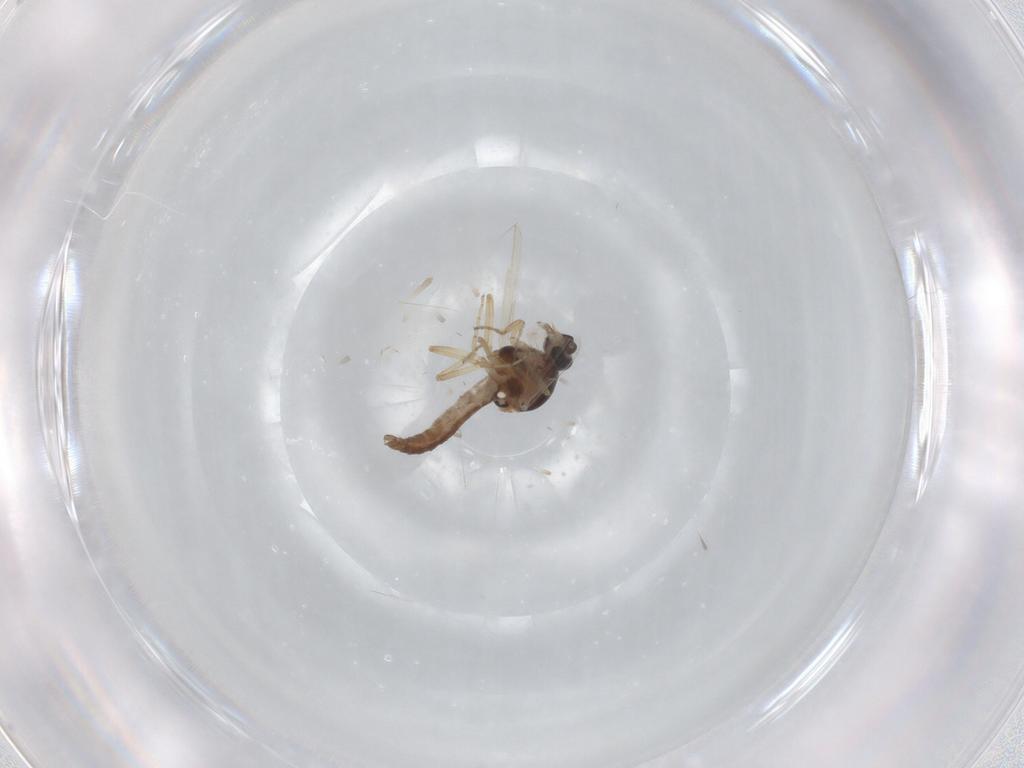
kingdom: Animalia
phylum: Arthropoda
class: Insecta
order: Diptera
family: Ceratopogonidae
